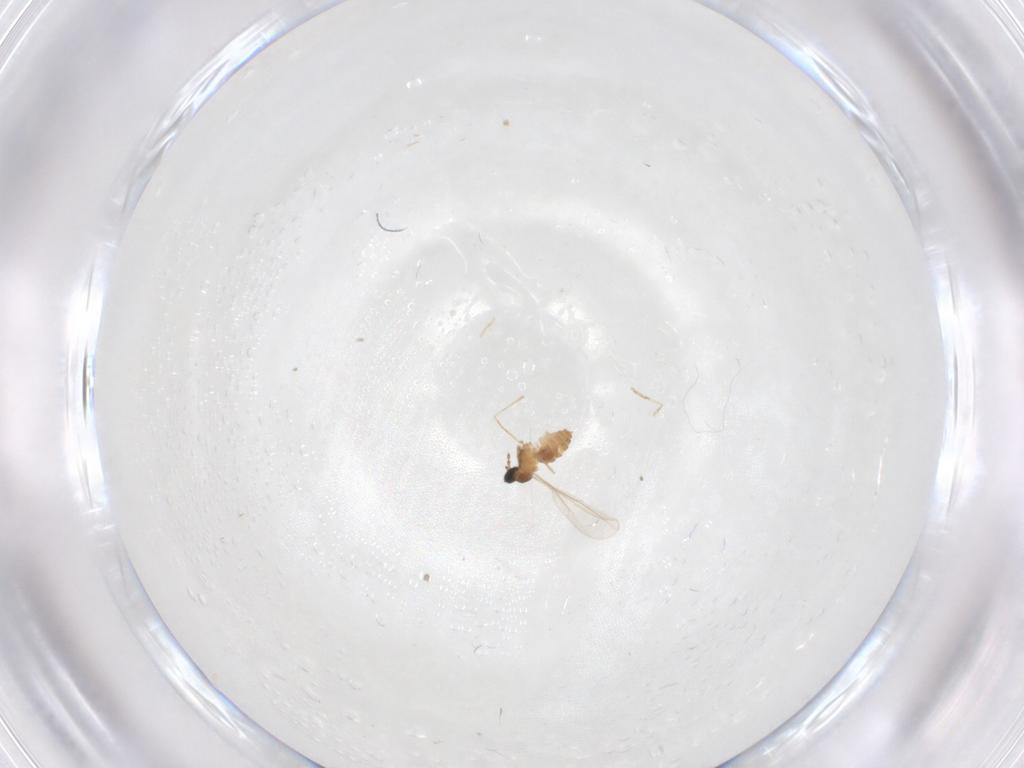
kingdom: Animalia
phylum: Arthropoda
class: Insecta
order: Diptera
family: Cecidomyiidae
